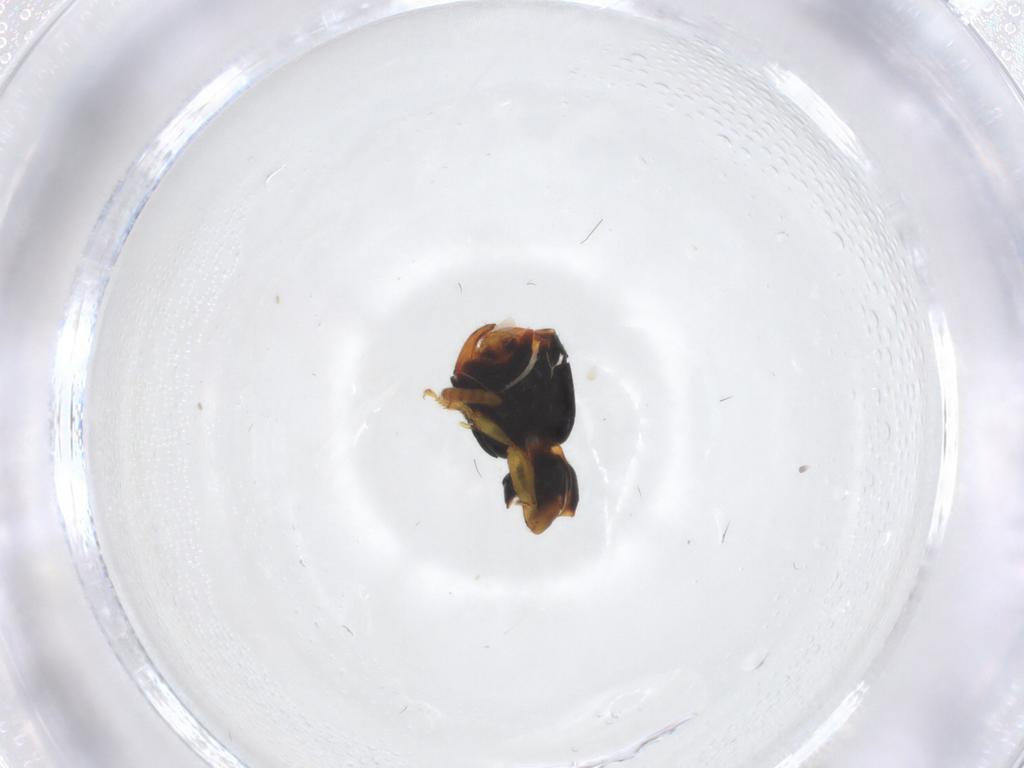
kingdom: Animalia
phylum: Arthropoda
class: Insecta
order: Hymenoptera
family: Bethylidae
